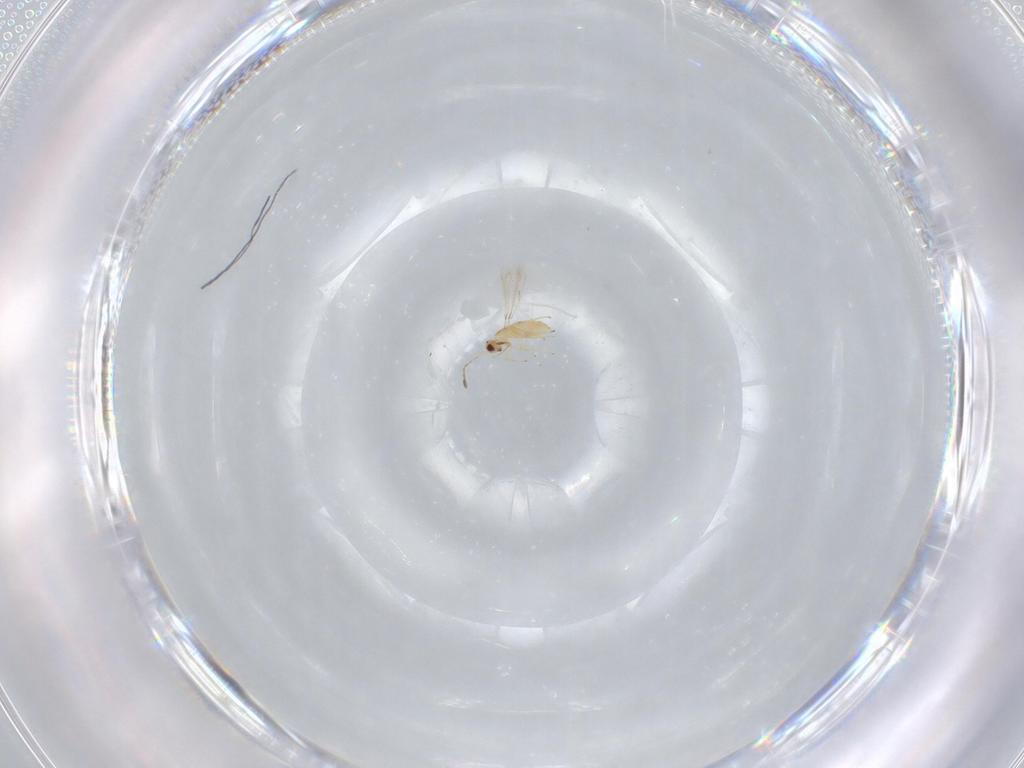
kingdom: Animalia
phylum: Arthropoda
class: Insecta
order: Hymenoptera
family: Mymaridae
